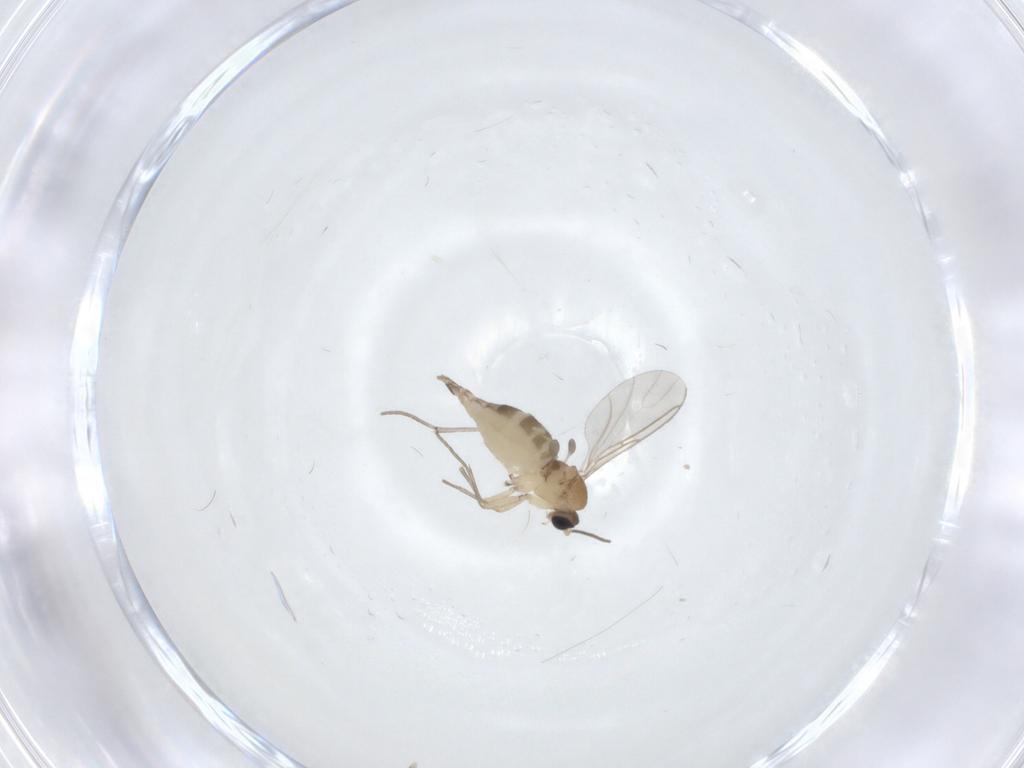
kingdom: Animalia
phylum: Arthropoda
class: Insecta
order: Diptera
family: Sciaridae
